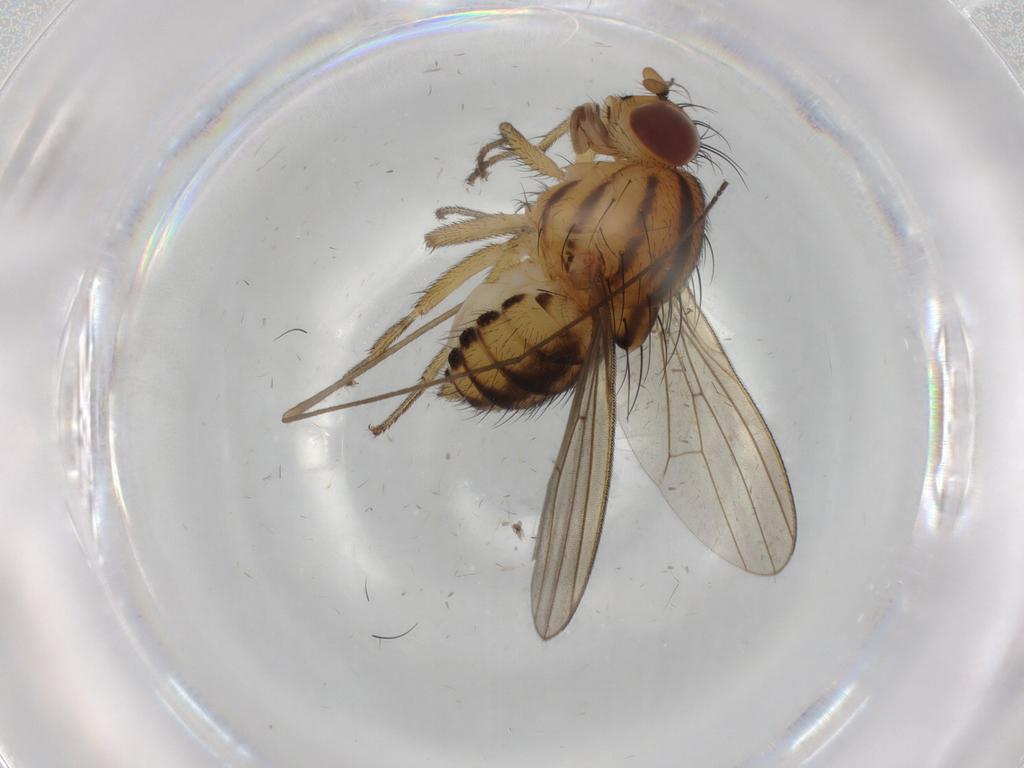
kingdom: Animalia
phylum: Arthropoda
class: Insecta
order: Diptera
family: Limoniidae
